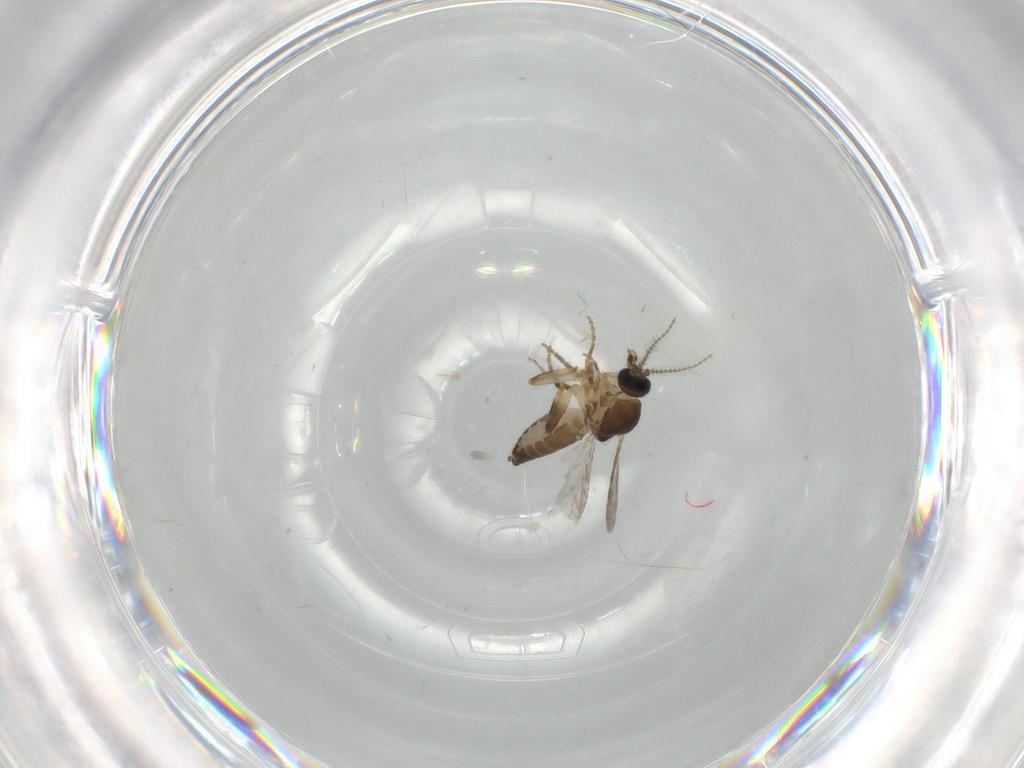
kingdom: Animalia
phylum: Arthropoda
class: Insecta
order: Diptera
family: Ceratopogonidae
